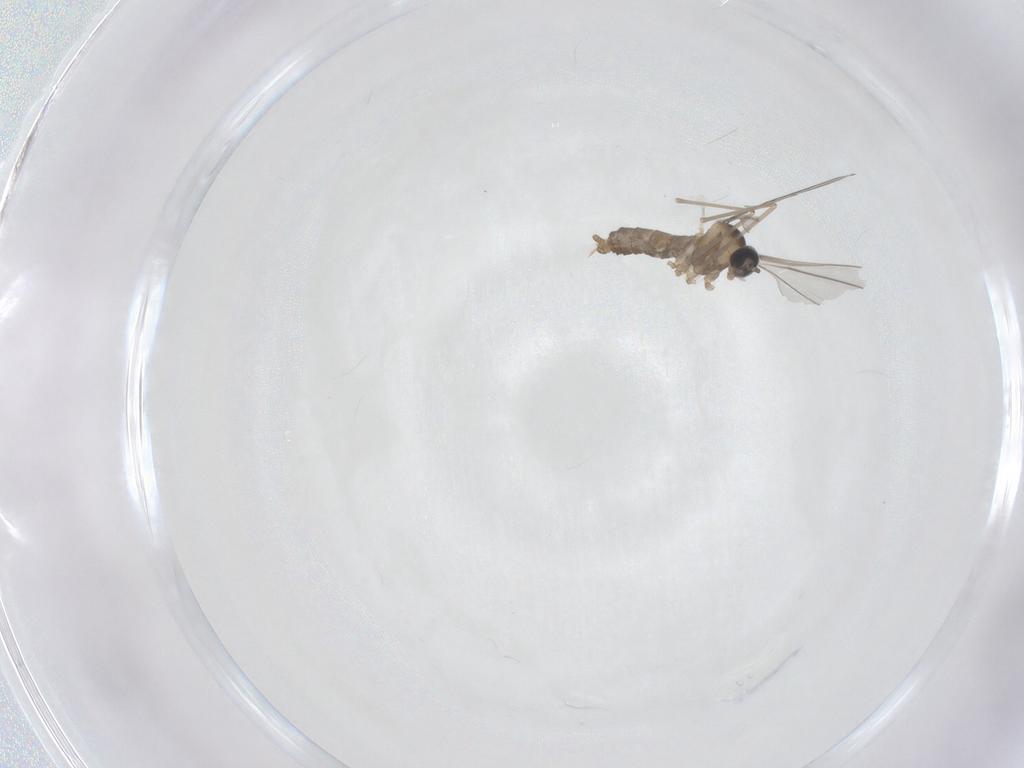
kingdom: Animalia
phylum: Arthropoda
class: Insecta
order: Diptera
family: Cecidomyiidae
